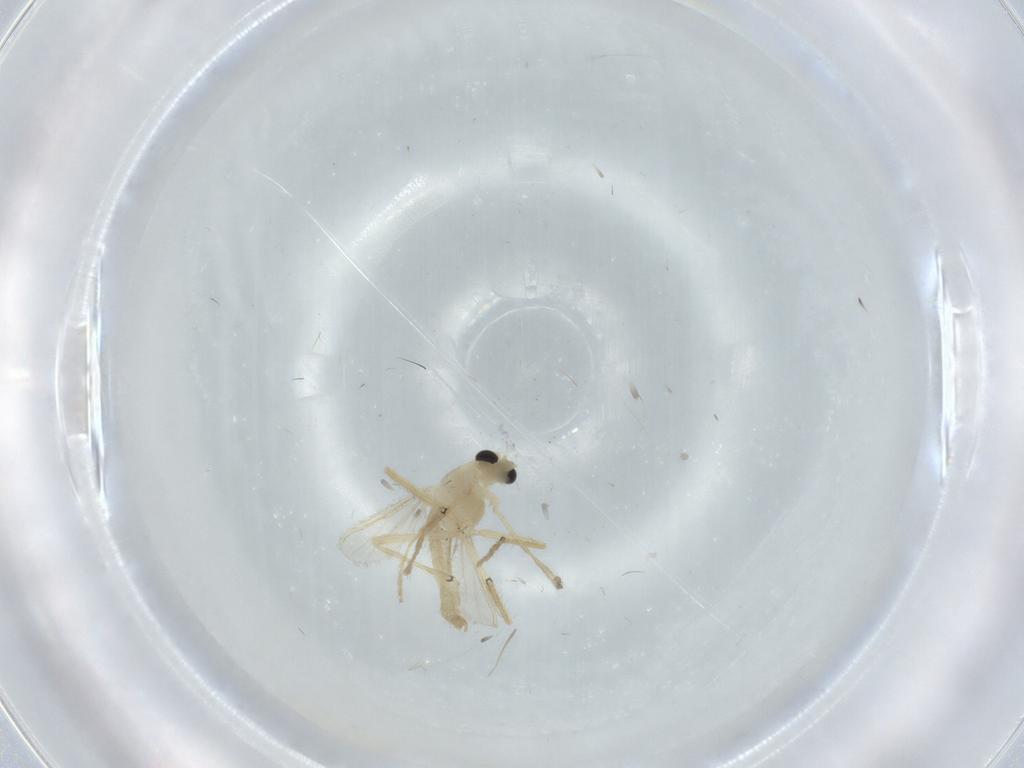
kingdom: Animalia
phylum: Arthropoda
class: Insecta
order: Diptera
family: Chironomidae
